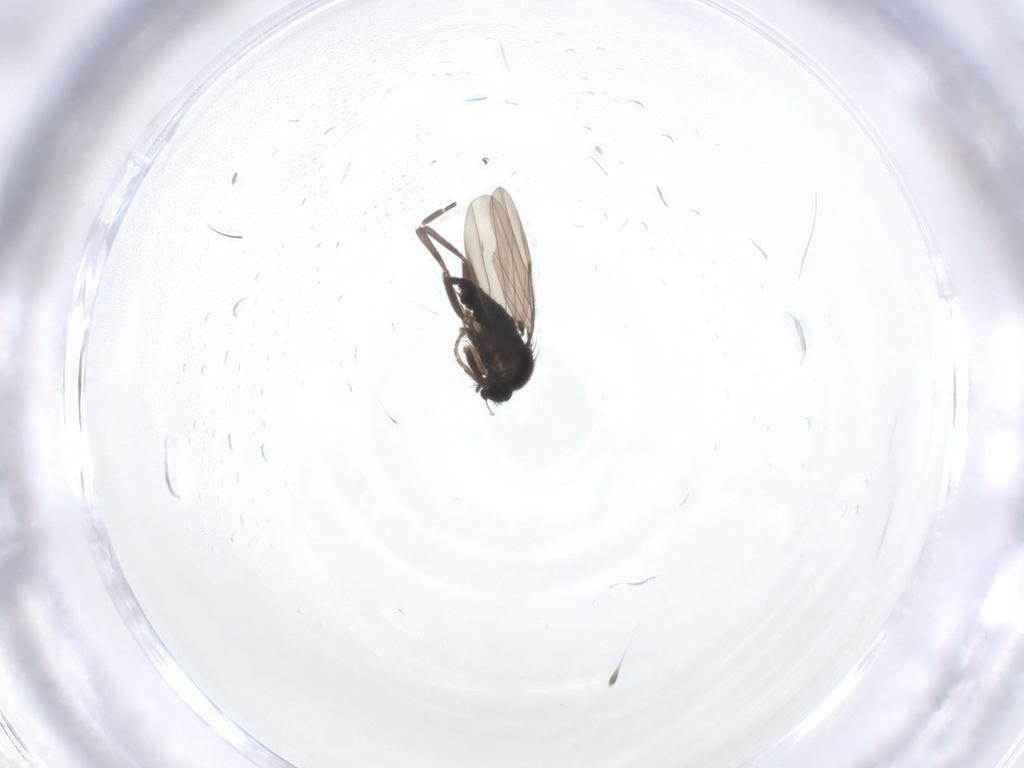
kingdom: Animalia
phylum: Arthropoda
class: Insecta
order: Diptera
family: Phoridae
